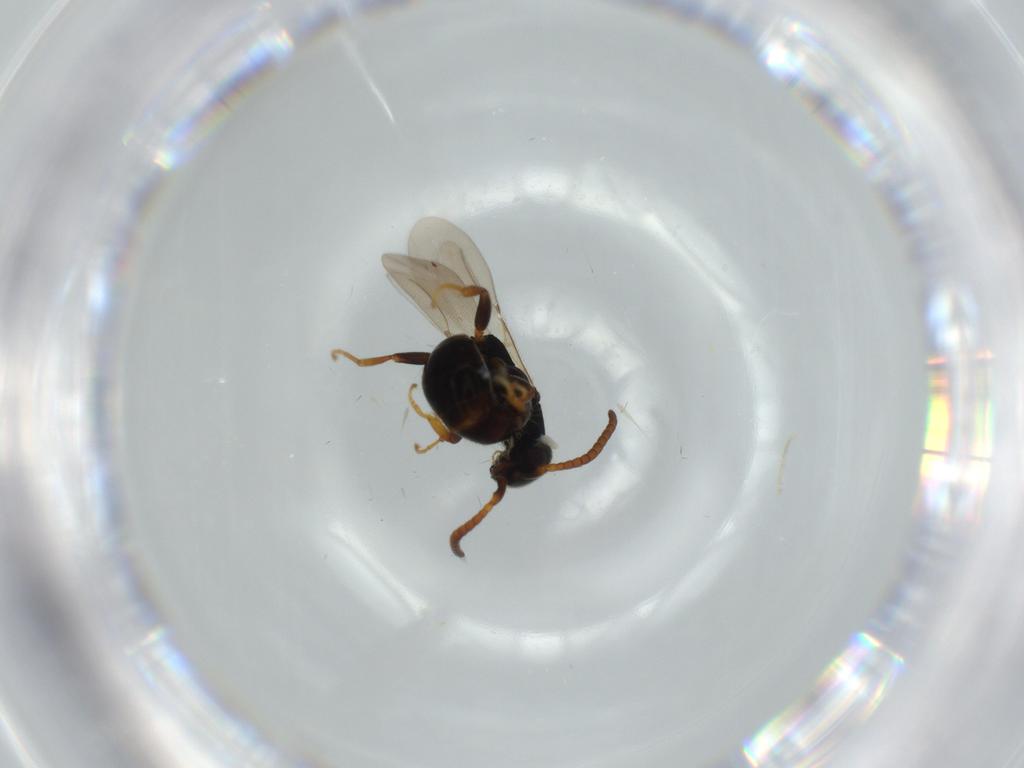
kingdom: Animalia
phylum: Arthropoda
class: Insecta
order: Hymenoptera
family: Bethylidae
